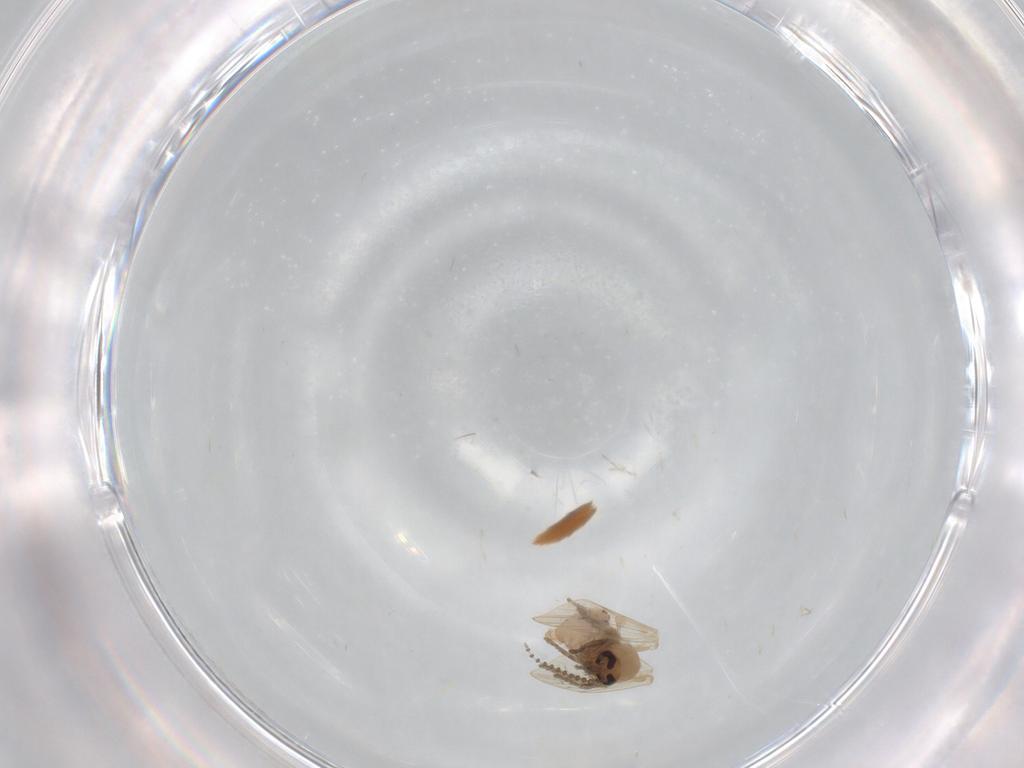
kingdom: Animalia
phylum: Arthropoda
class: Insecta
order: Diptera
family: Psychodidae
